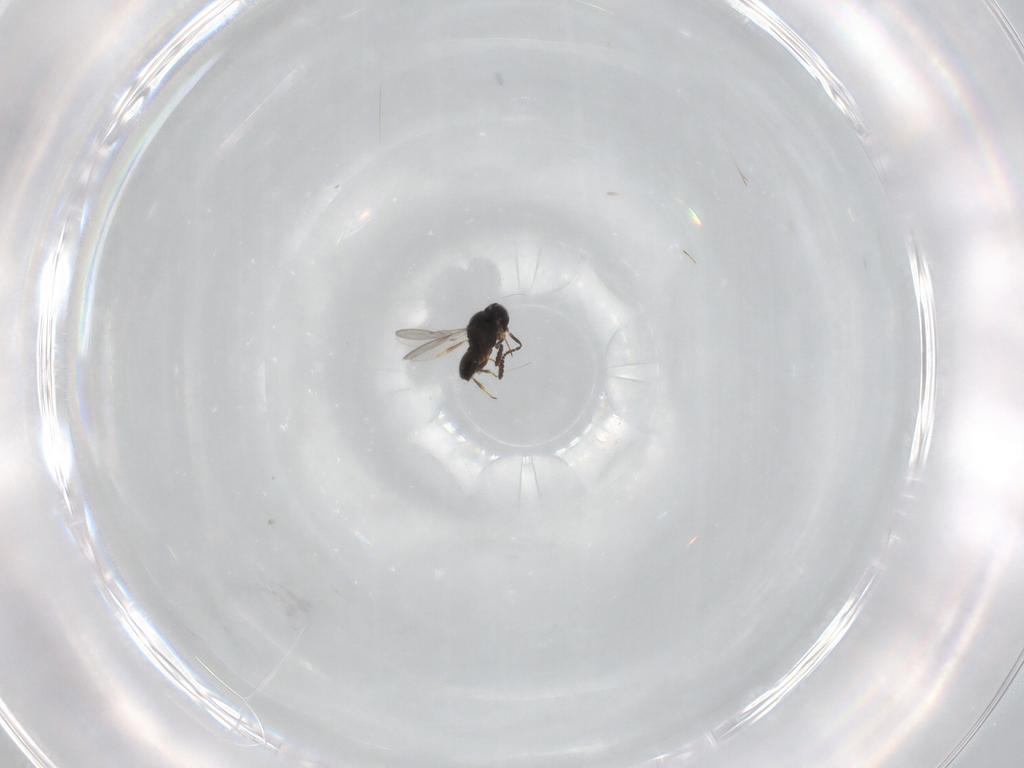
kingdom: Animalia
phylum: Arthropoda
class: Insecta
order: Hymenoptera
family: Scelionidae
